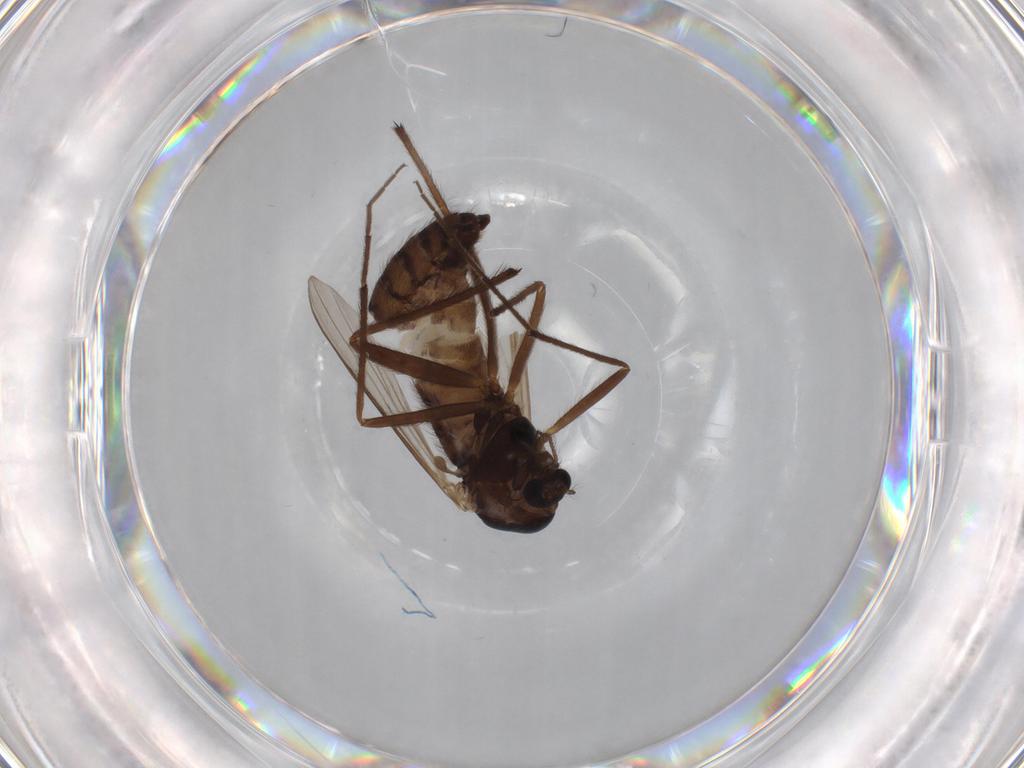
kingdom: Animalia
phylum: Arthropoda
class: Insecta
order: Diptera
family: Chironomidae
